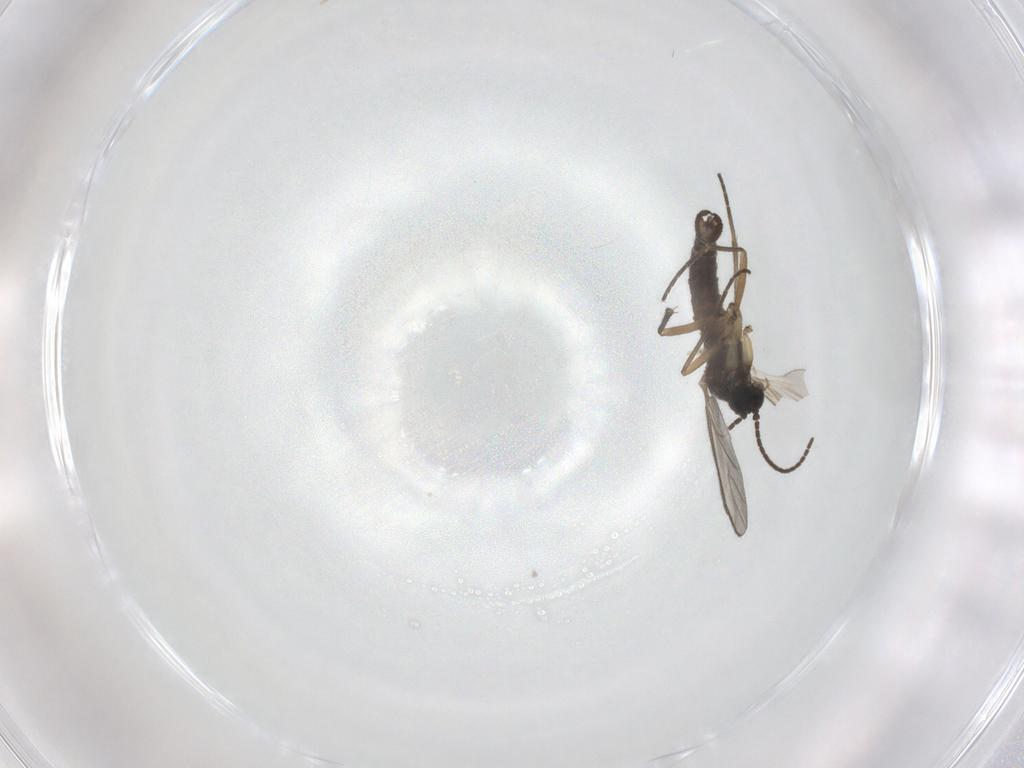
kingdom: Animalia
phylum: Arthropoda
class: Insecta
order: Diptera
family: Sciaridae
